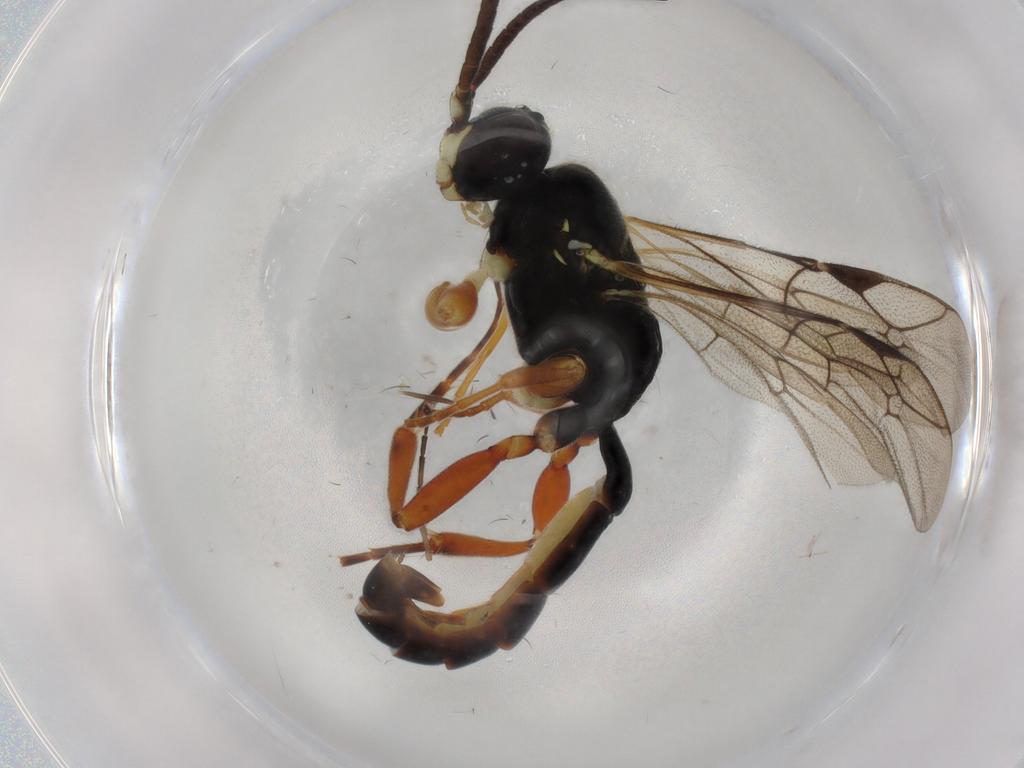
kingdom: Animalia
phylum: Arthropoda
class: Insecta
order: Hymenoptera
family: Ichneumonidae
